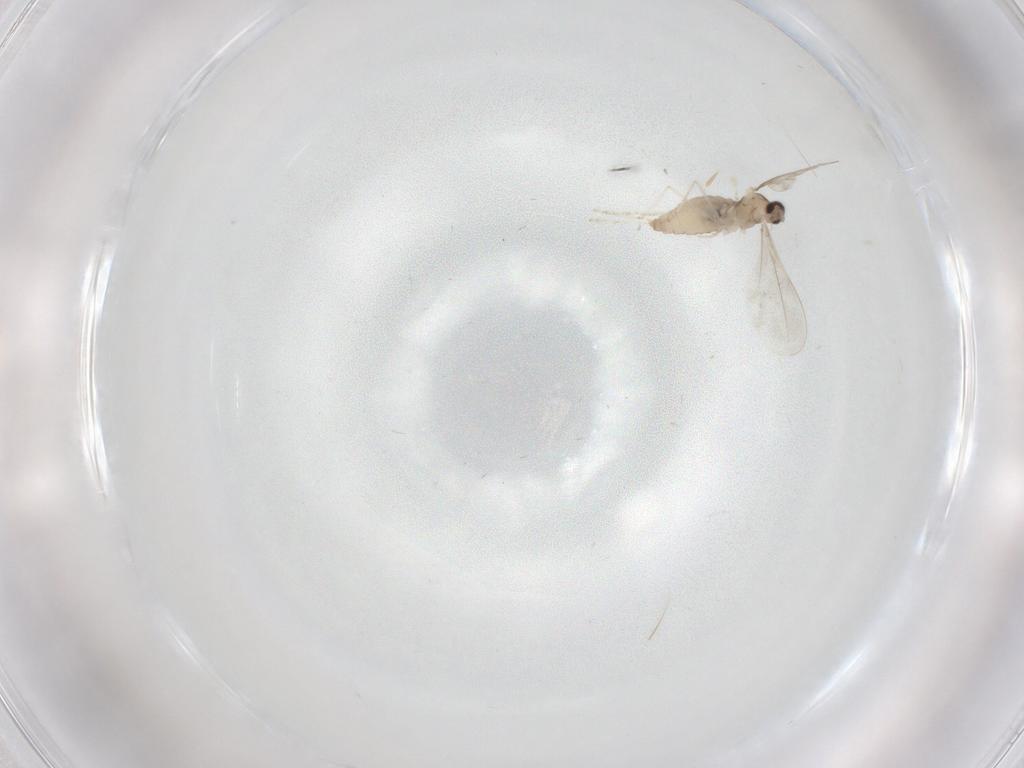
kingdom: Animalia
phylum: Arthropoda
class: Insecta
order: Diptera
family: Cecidomyiidae
